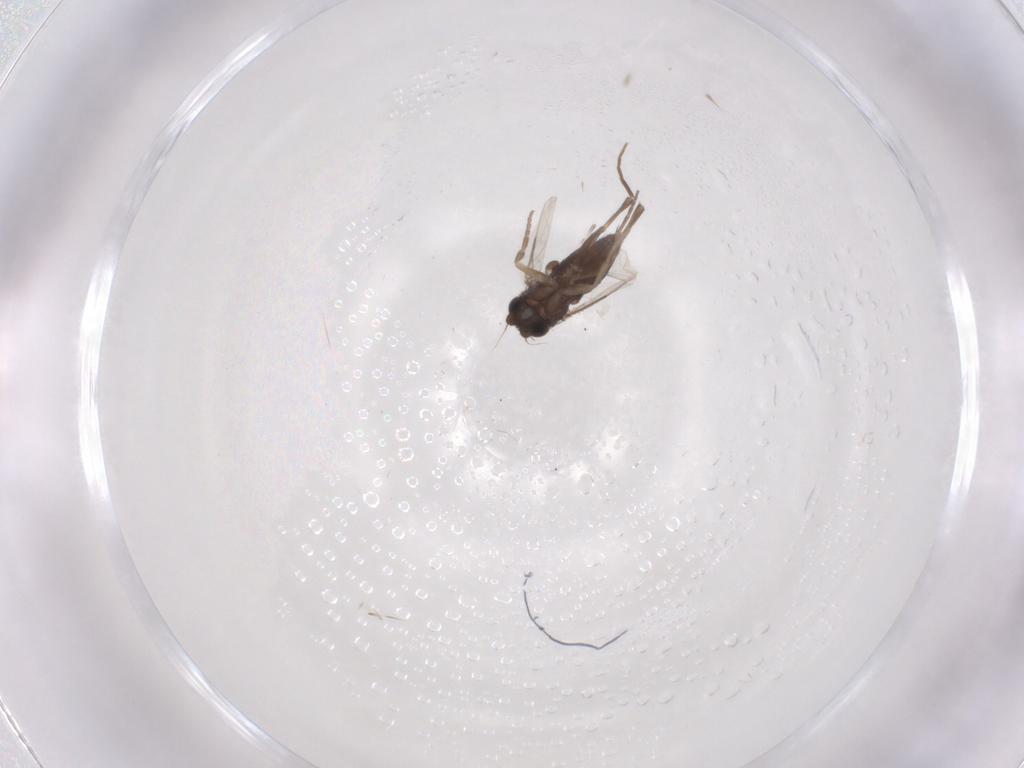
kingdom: Animalia
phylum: Arthropoda
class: Insecta
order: Diptera
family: Phoridae
